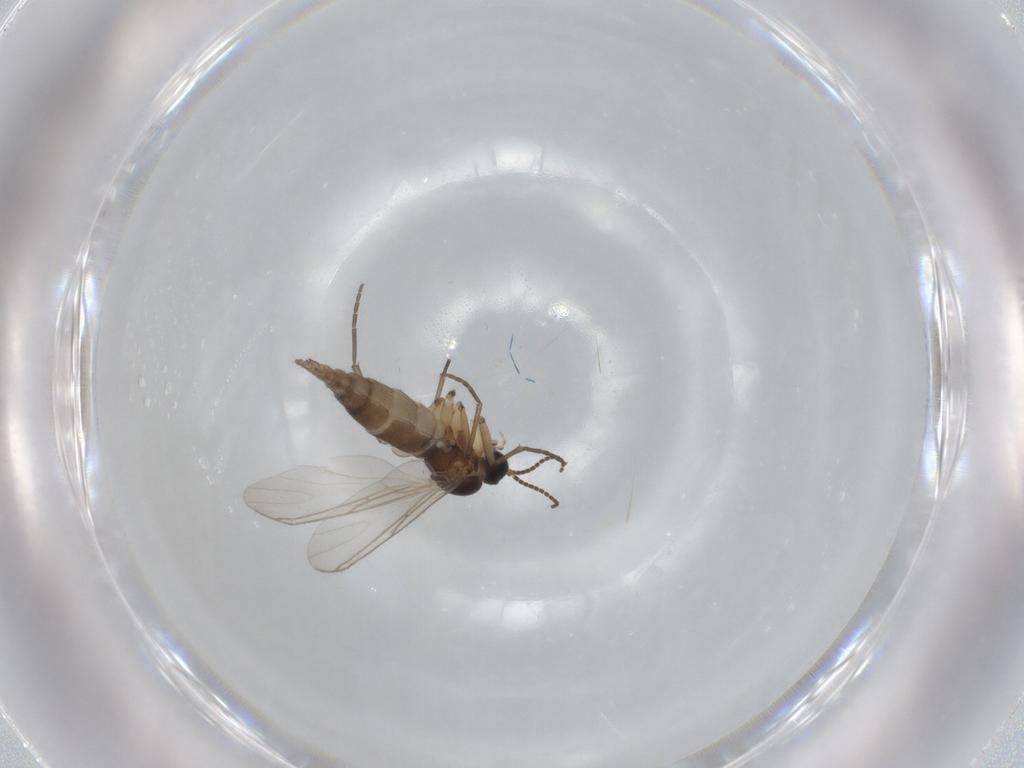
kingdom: Animalia
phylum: Arthropoda
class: Insecta
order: Diptera
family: Sciaridae
